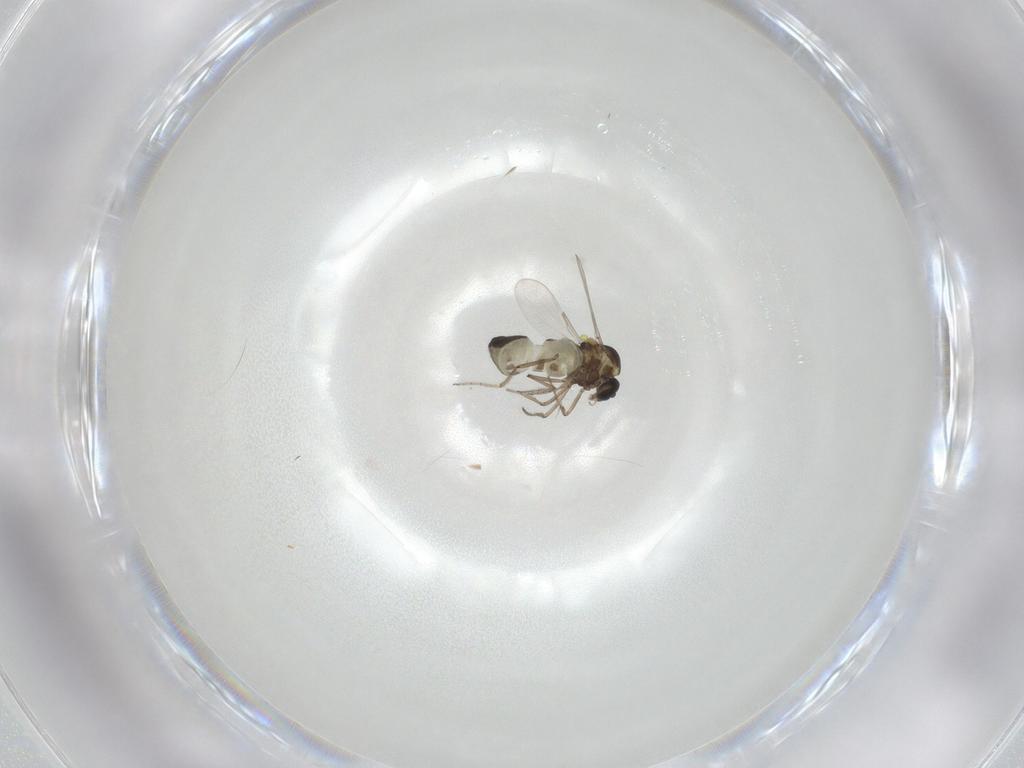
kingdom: Animalia
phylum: Arthropoda
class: Insecta
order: Diptera
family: Ceratopogonidae
